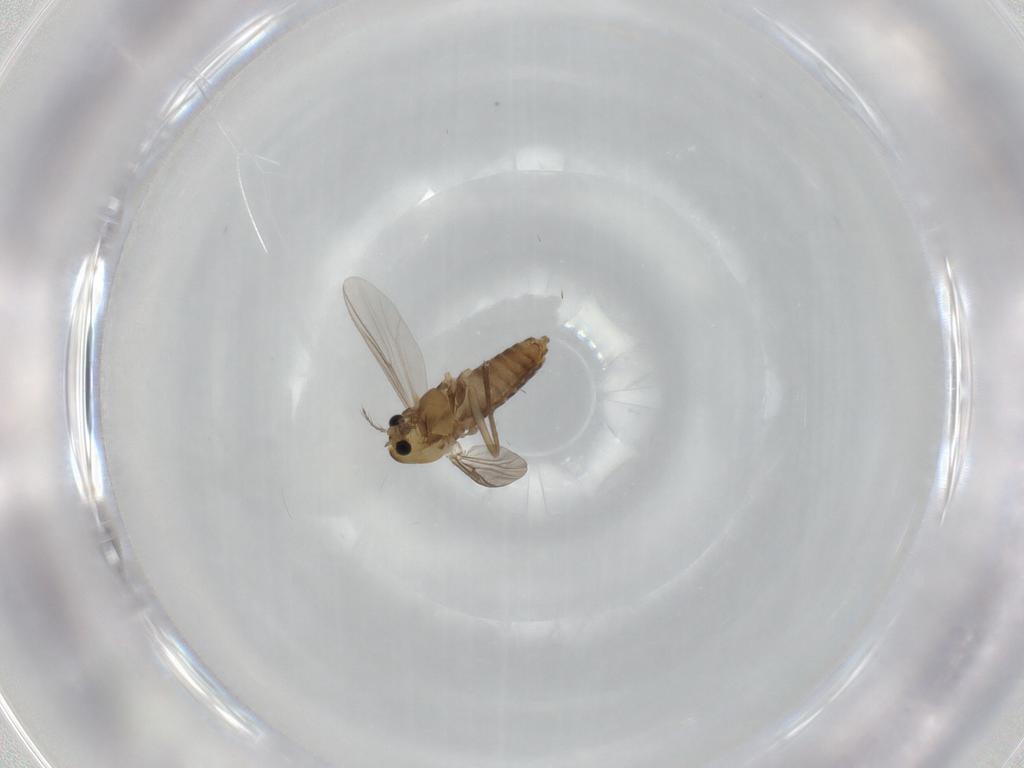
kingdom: Animalia
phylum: Arthropoda
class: Insecta
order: Diptera
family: Chironomidae
